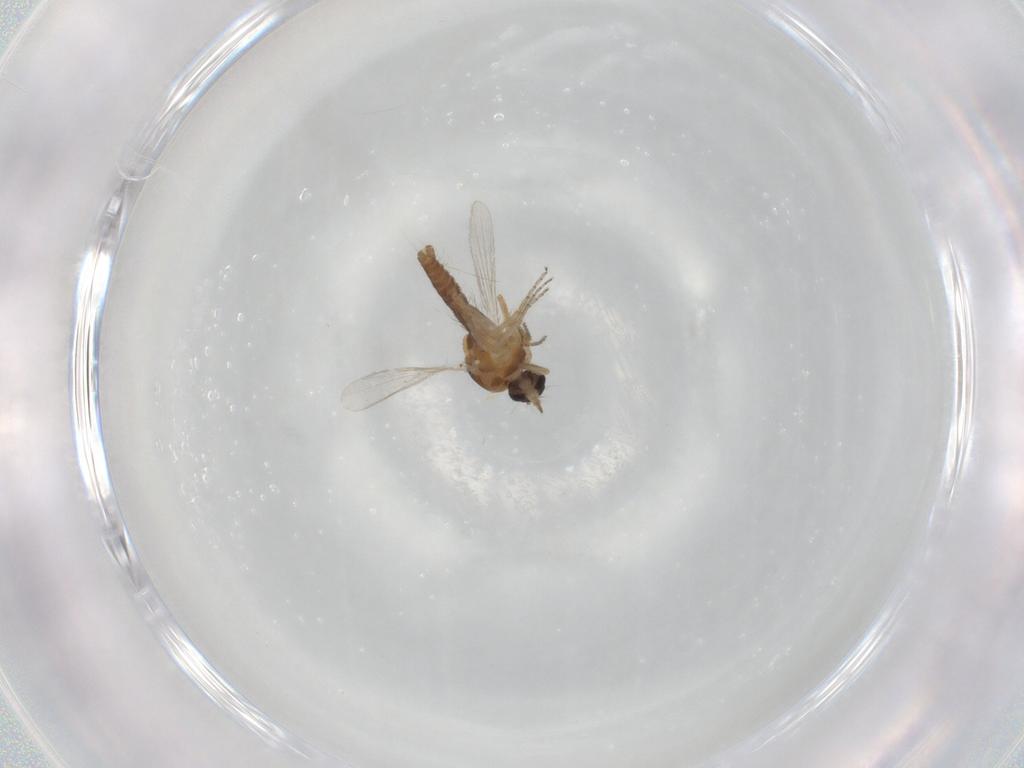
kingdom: Animalia
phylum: Arthropoda
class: Insecta
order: Diptera
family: Ceratopogonidae
